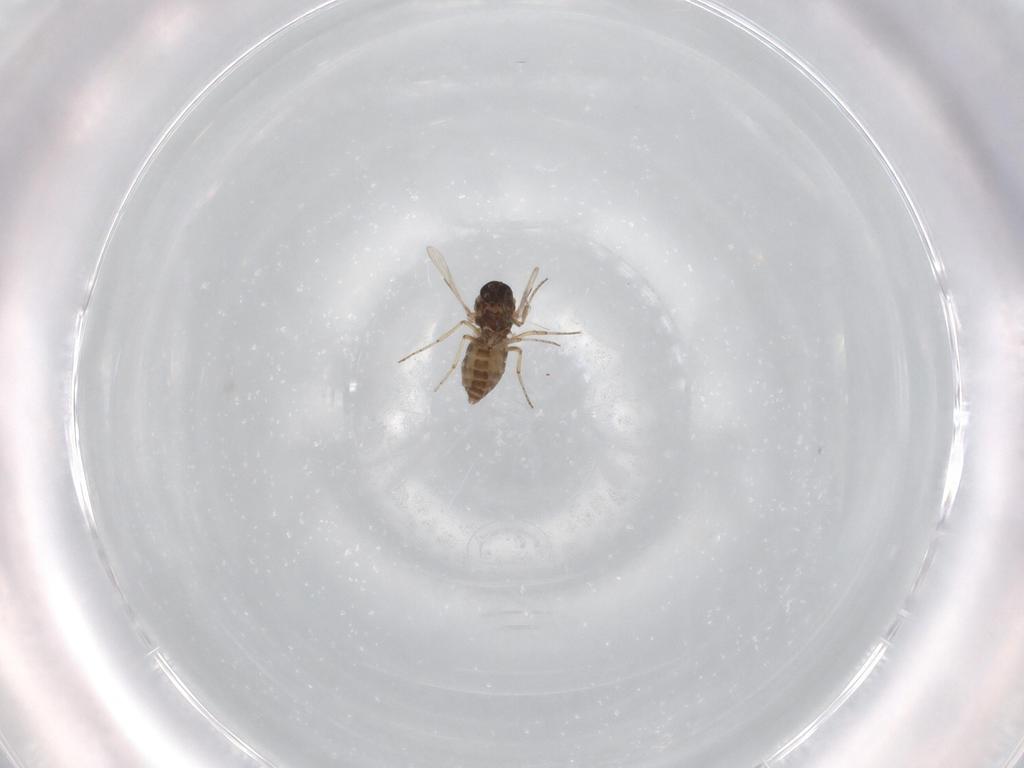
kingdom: Animalia
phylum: Arthropoda
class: Insecta
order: Diptera
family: Ceratopogonidae
